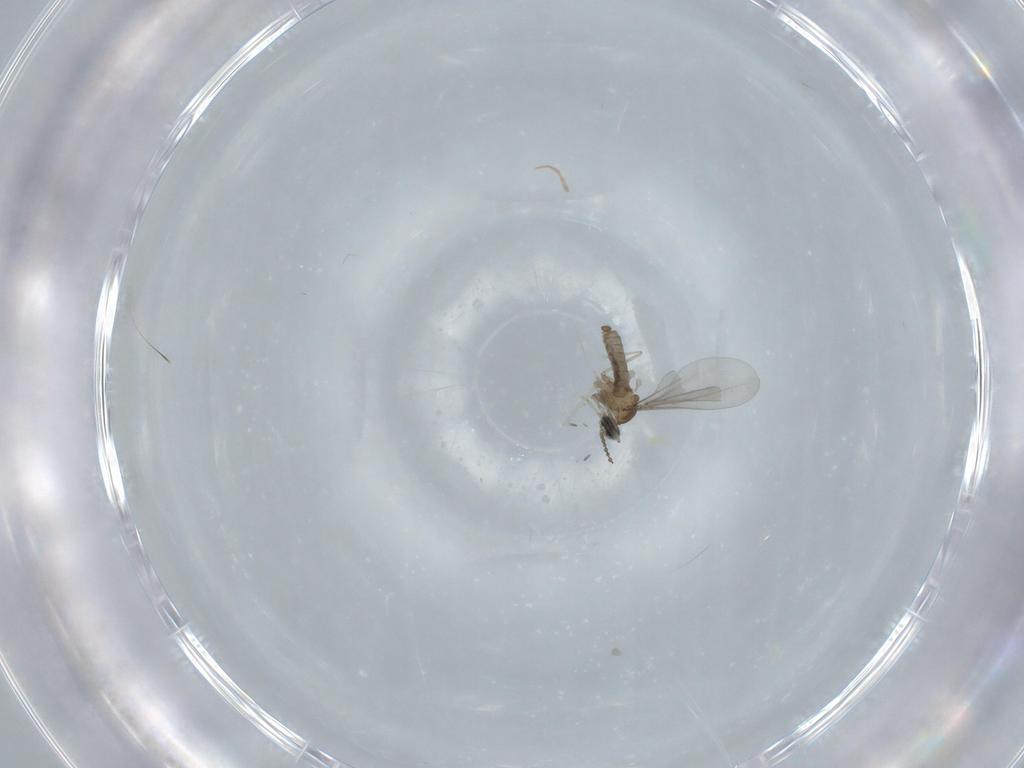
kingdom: Animalia
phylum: Arthropoda
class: Insecta
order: Diptera
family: Cecidomyiidae
